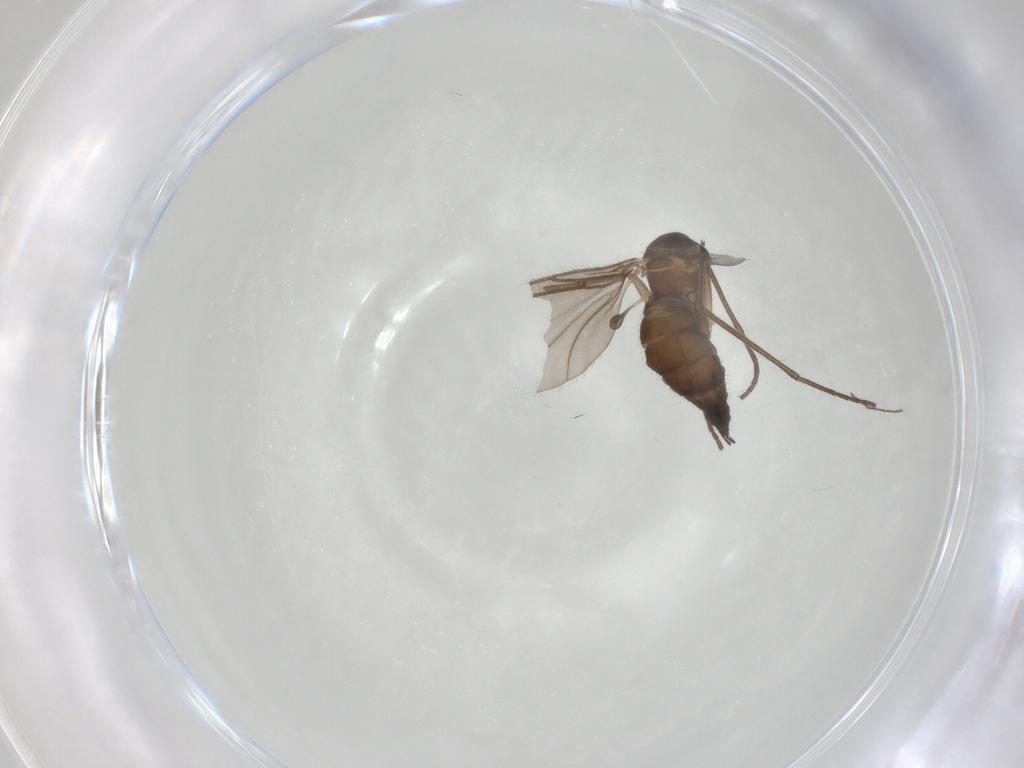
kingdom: Animalia
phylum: Arthropoda
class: Insecta
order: Diptera
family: Sciaridae
